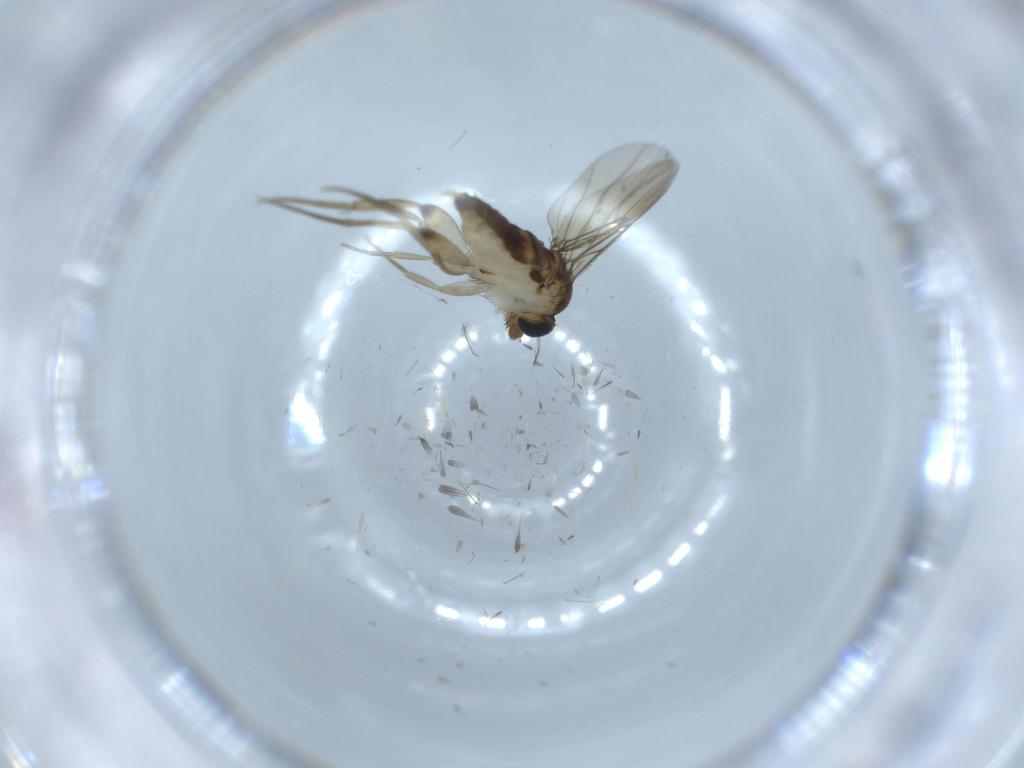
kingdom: Animalia
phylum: Arthropoda
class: Insecta
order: Diptera
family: Phoridae
